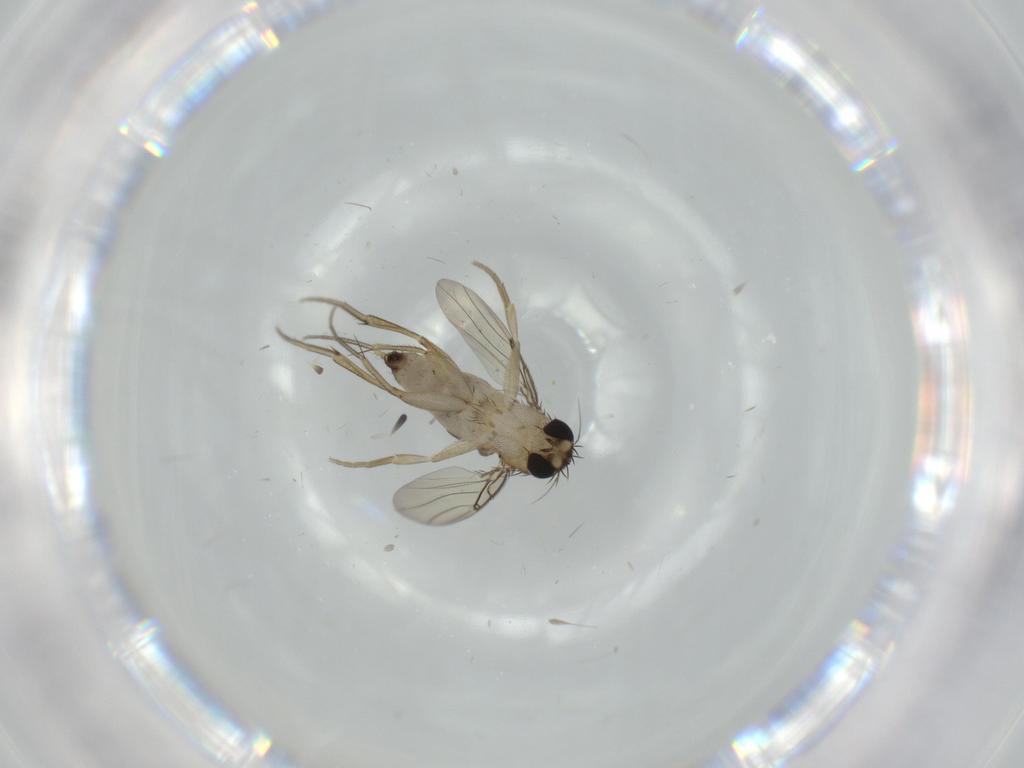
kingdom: Animalia
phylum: Arthropoda
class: Insecta
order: Diptera
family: Phoridae
